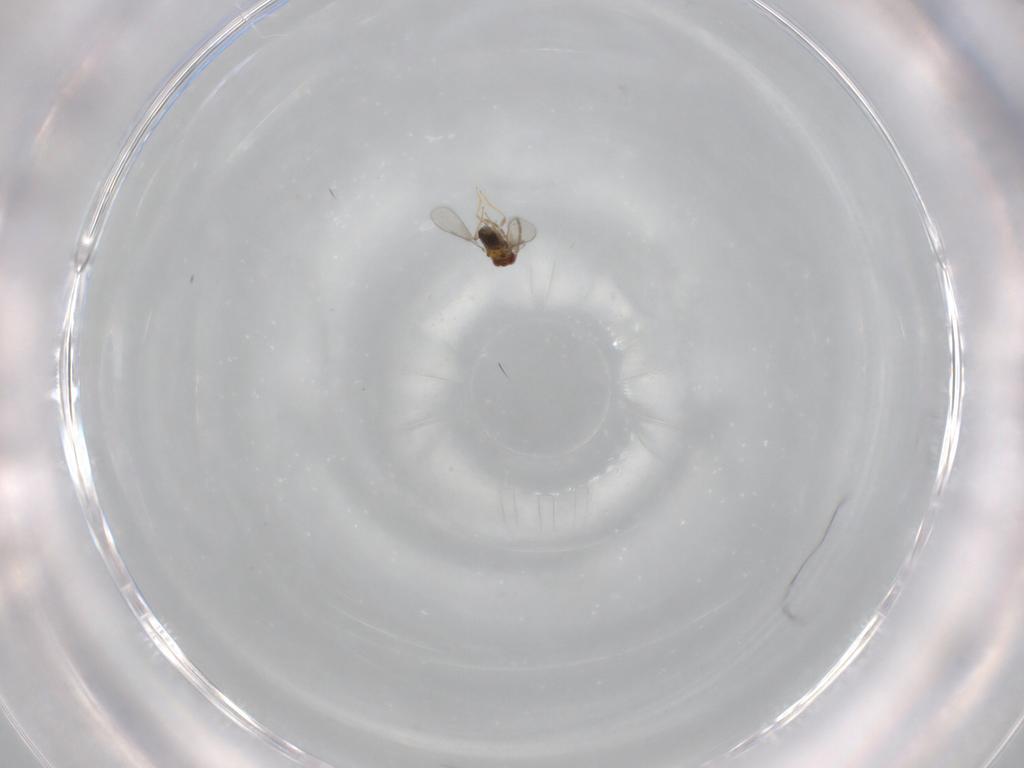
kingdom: Animalia
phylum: Arthropoda
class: Insecta
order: Hymenoptera
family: Aphelinidae
